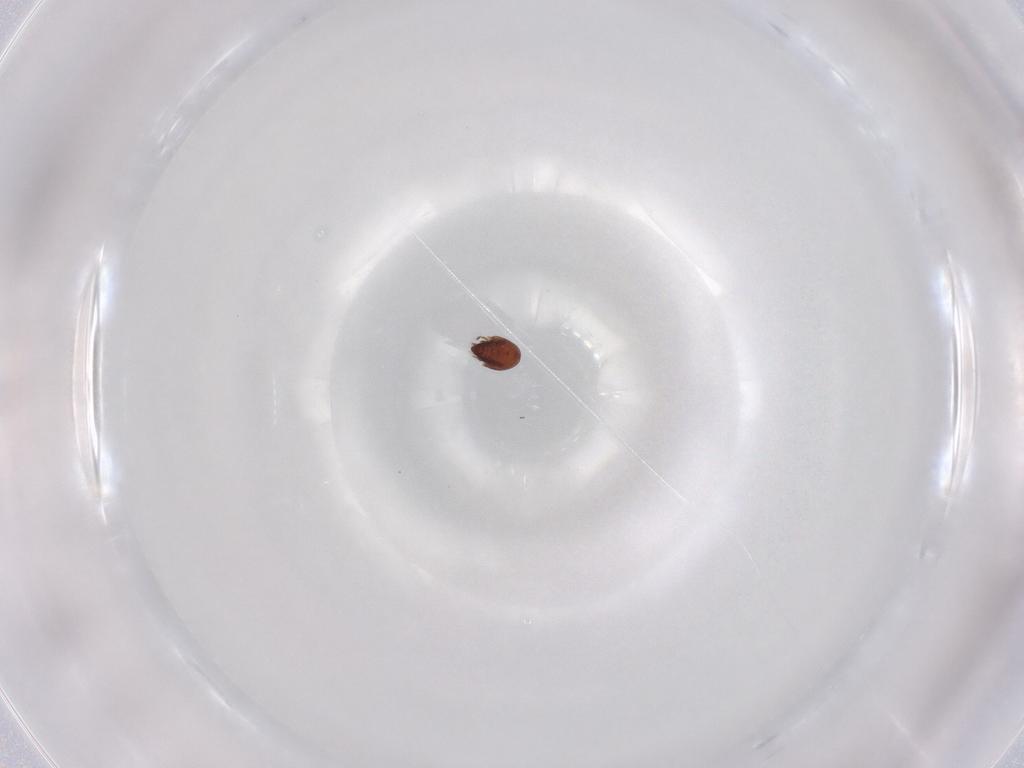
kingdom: Animalia
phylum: Arthropoda
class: Arachnida
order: Sarcoptiformes
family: Ceratozetidae
